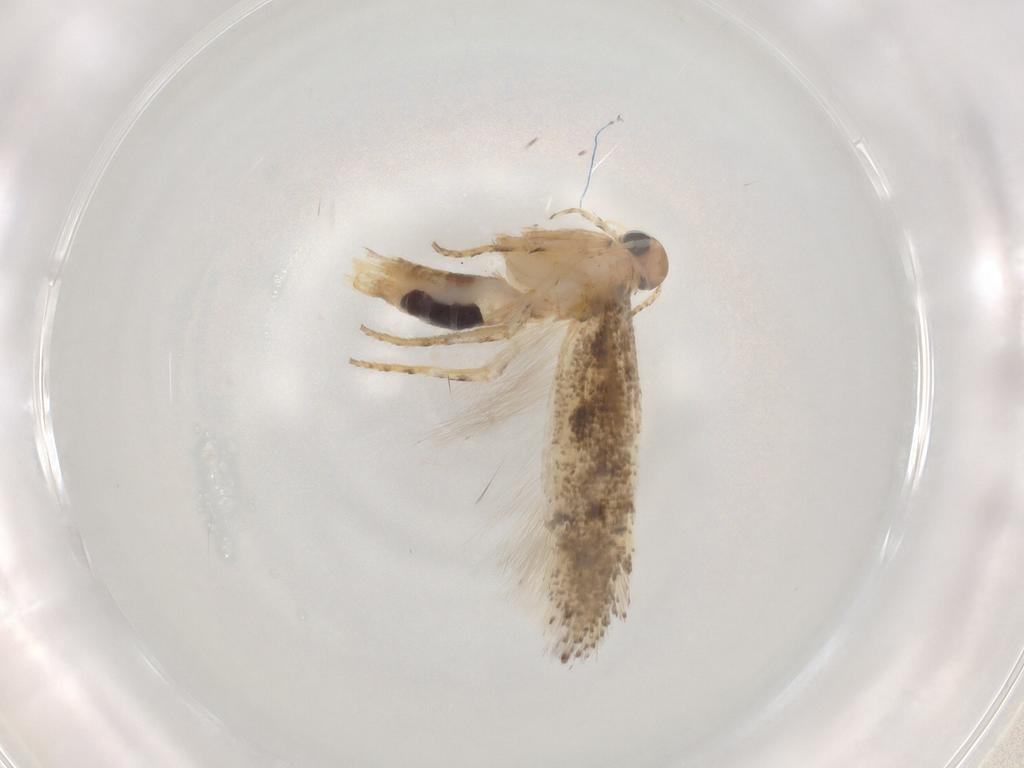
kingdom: Animalia
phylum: Arthropoda
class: Insecta
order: Lepidoptera
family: Gelechiidae
